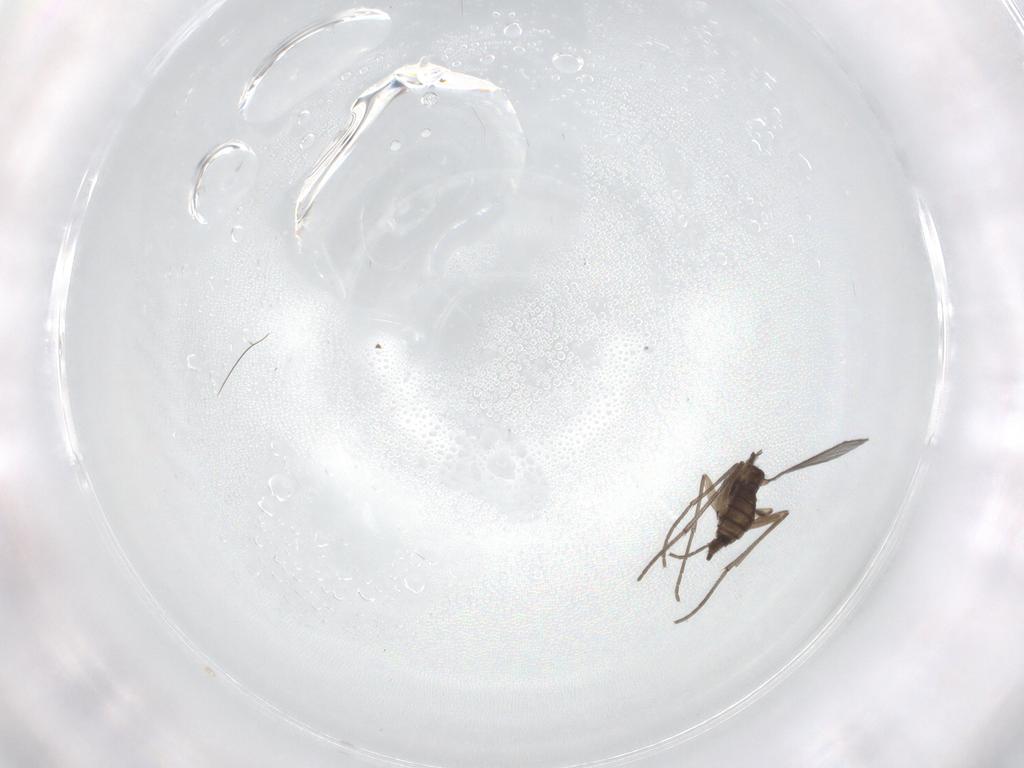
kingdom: Animalia
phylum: Arthropoda
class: Insecta
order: Diptera
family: Sciaridae
